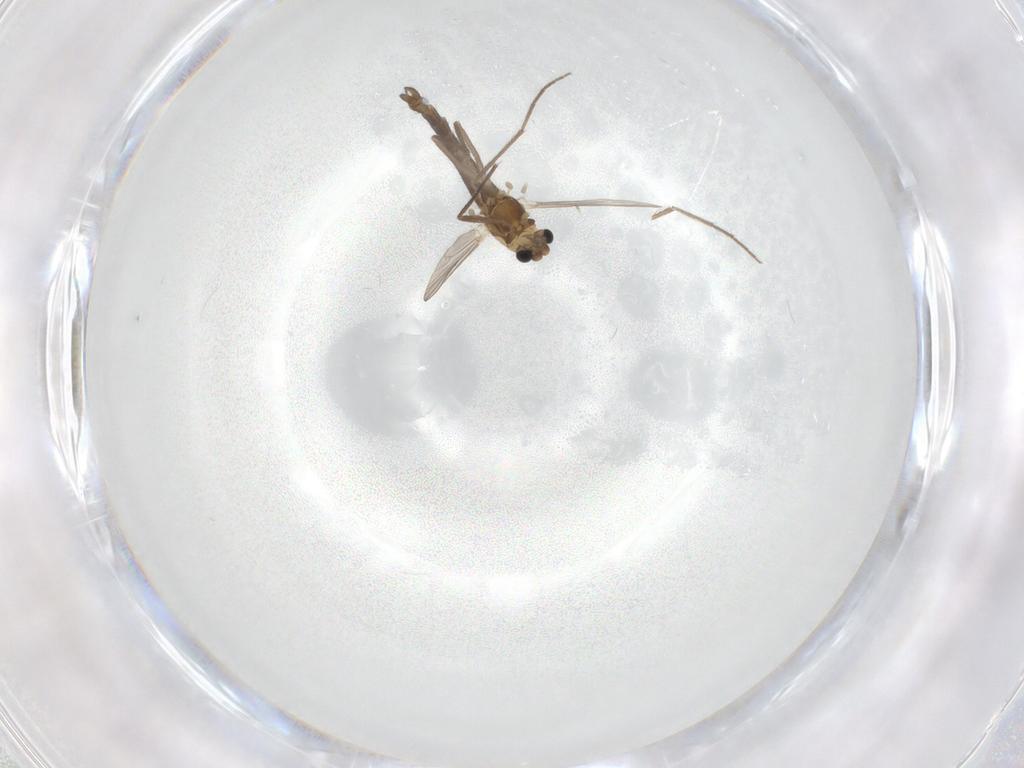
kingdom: Animalia
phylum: Arthropoda
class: Insecta
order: Diptera
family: Chironomidae
